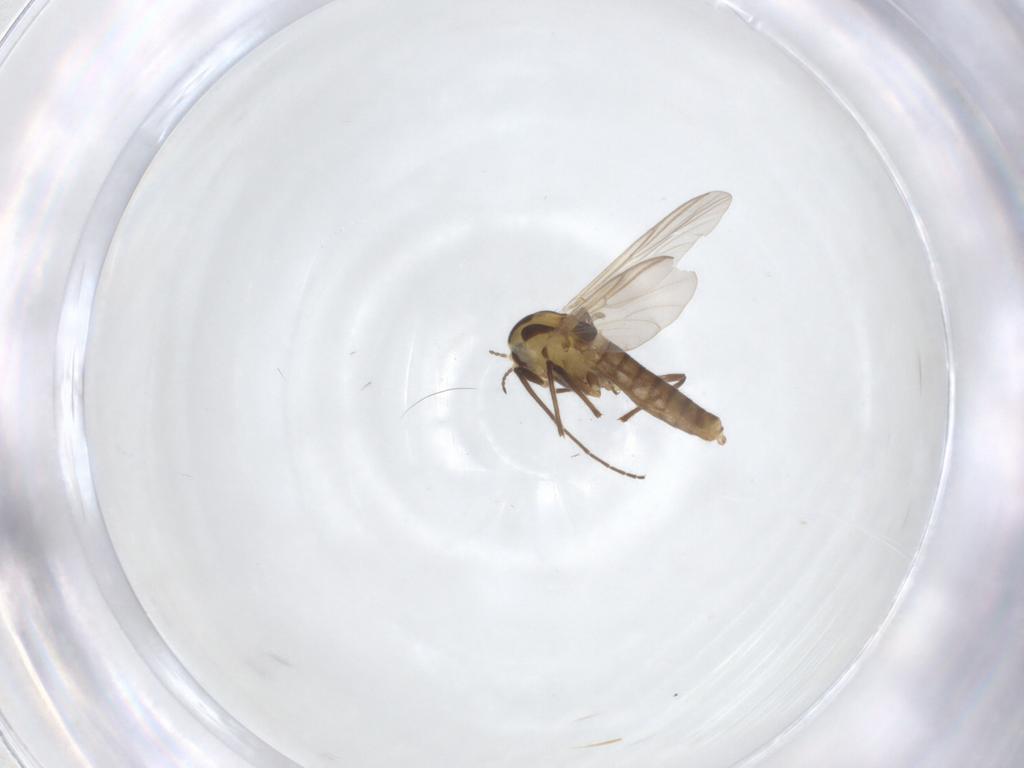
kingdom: Animalia
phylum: Arthropoda
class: Insecta
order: Diptera
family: Chironomidae
